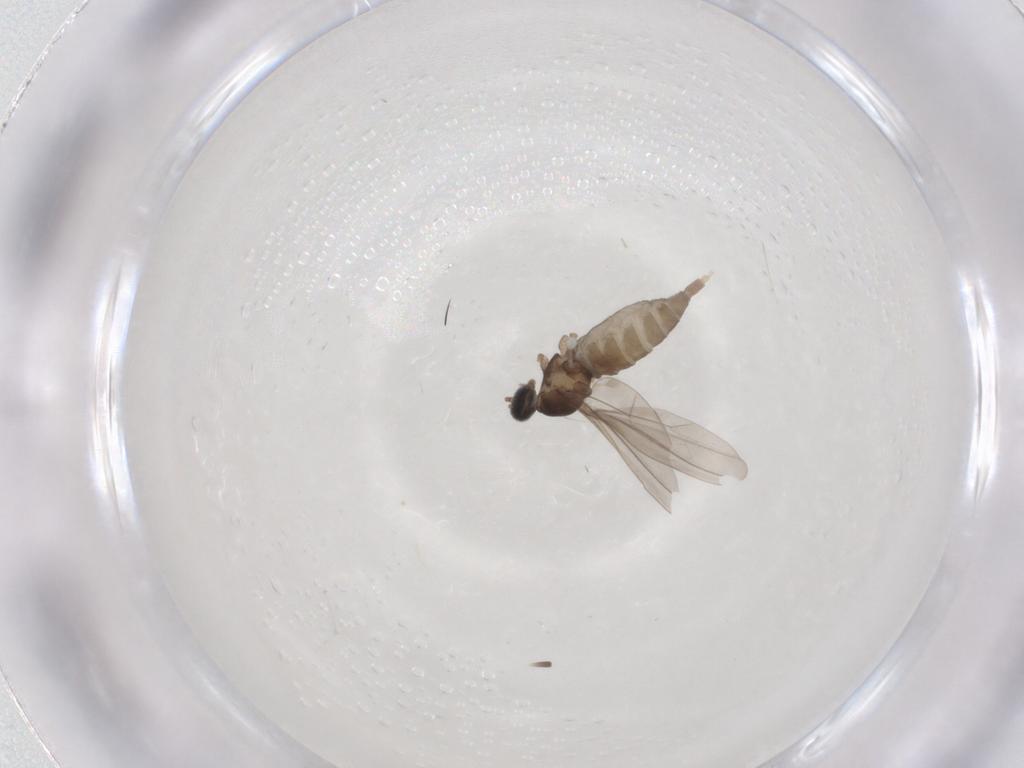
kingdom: Animalia
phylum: Arthropoda
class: Insecta
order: Diptera
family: Cecidomyiidae
